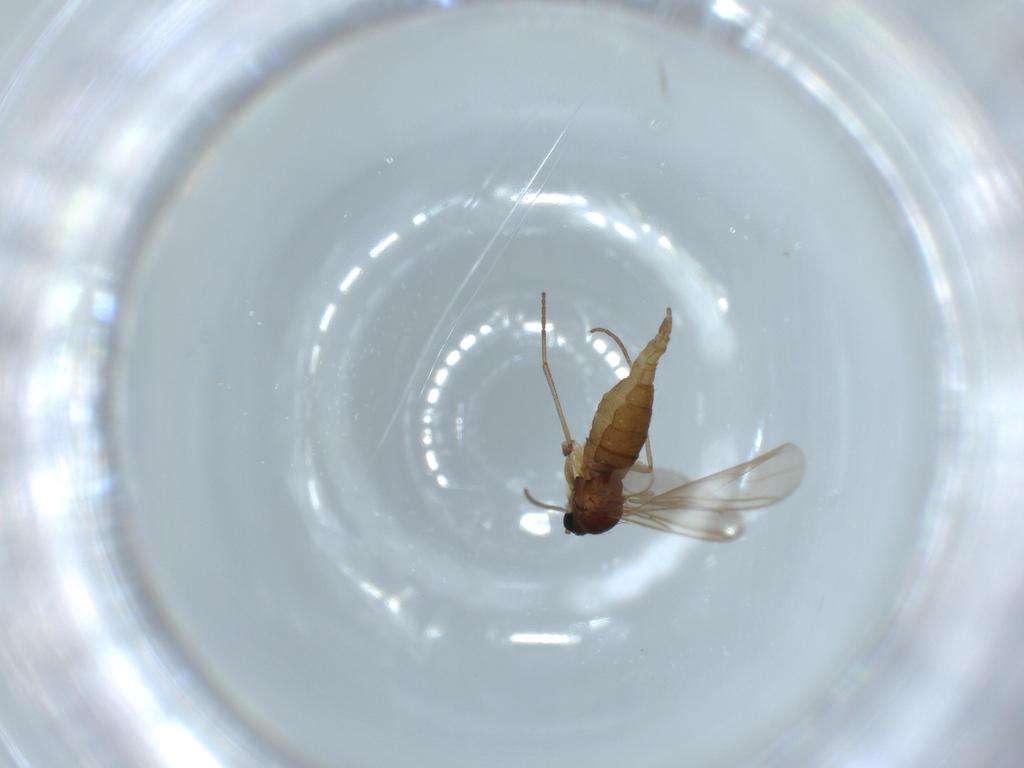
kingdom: Animalia
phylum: Arthropoda
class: Insecta
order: Diptera
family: Sciaridae
